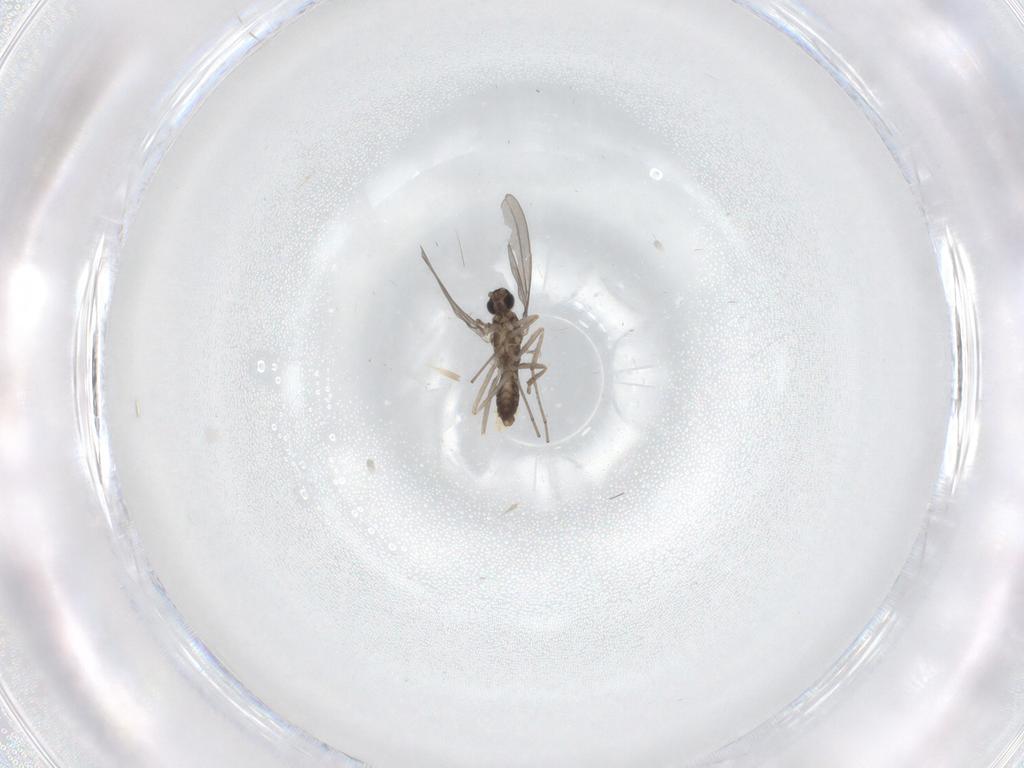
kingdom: Animalia
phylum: Arthropoda
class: Insecta
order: Diptera
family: Cecidomyiidae
